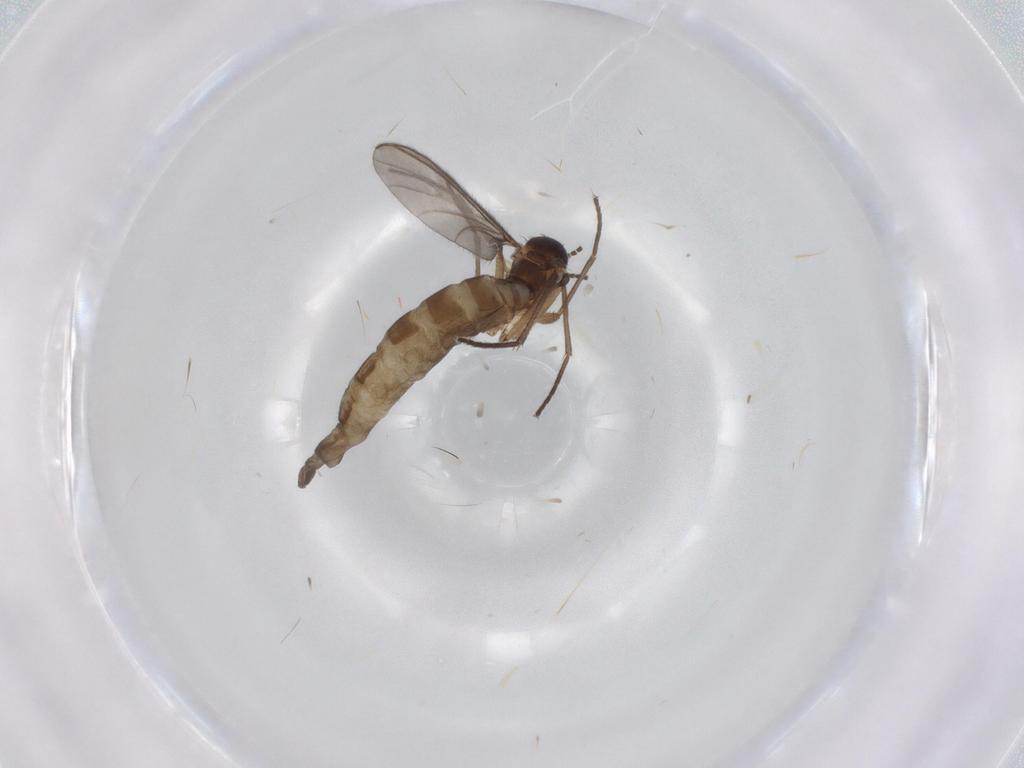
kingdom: Animalia
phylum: Arthropoda
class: Insecta
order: Diptera
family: Sciaridae
